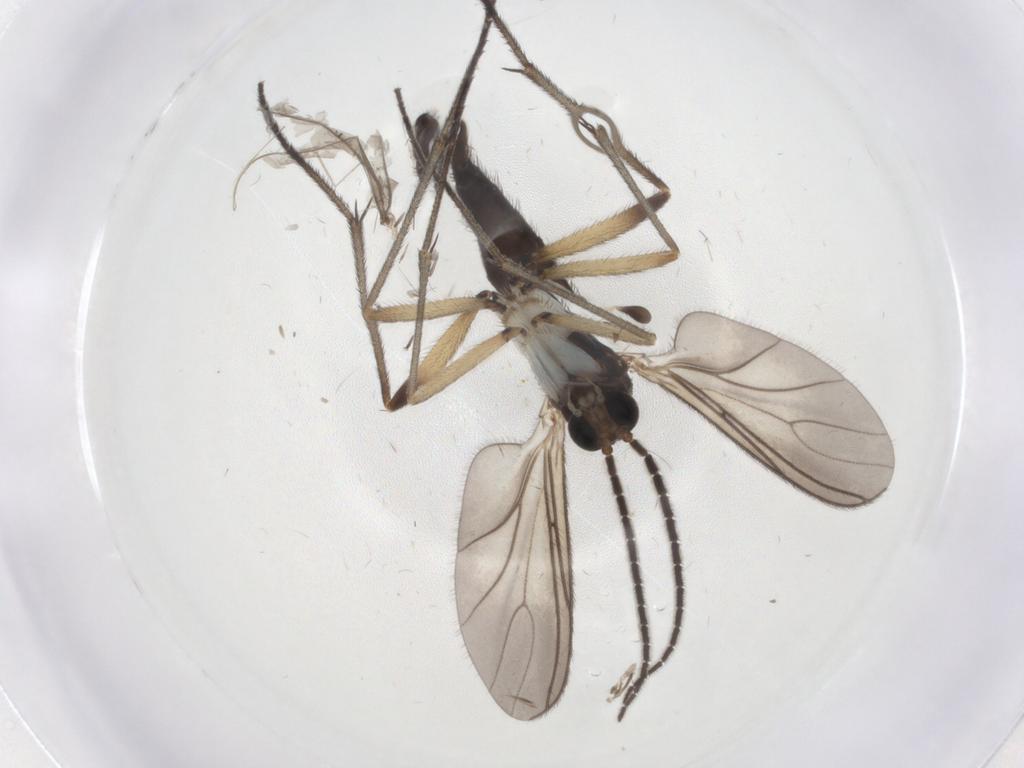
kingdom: Animalia
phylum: Arthropoda
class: Insecta
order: Diptera
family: Sciaridae
